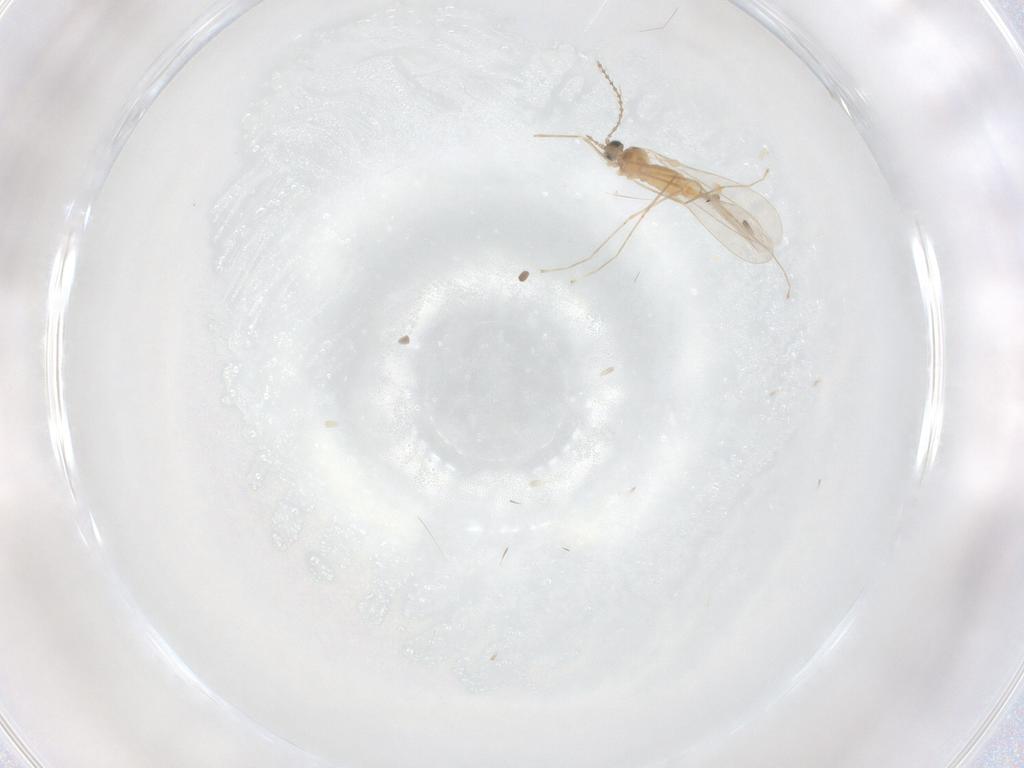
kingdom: Animalia
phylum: Arthropoda
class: Insecta
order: Diptera
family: Cecidomyiidae
